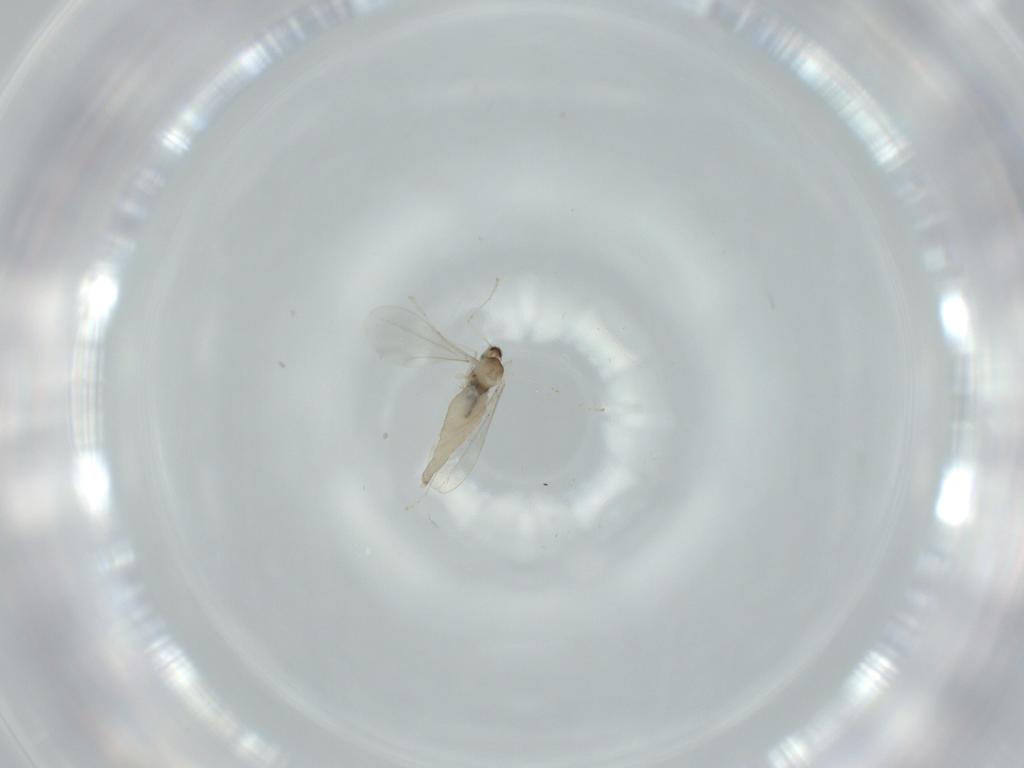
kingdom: Animalia
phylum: Arthropoda
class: Insecta
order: Diptera
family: Cecidomyiidae
